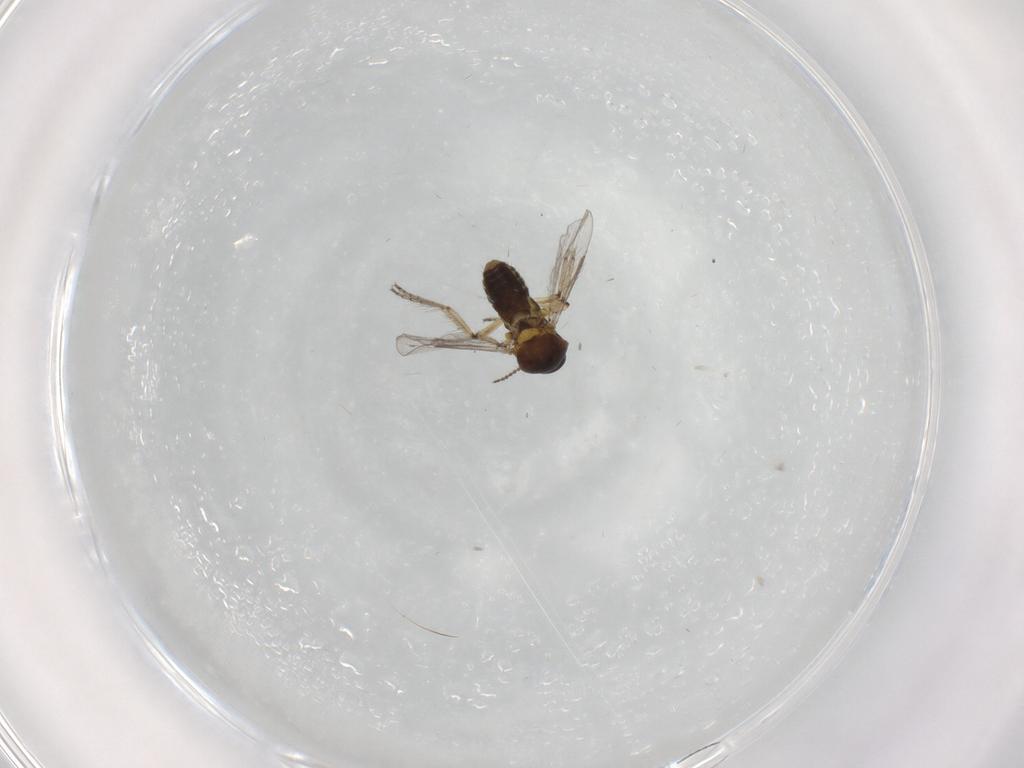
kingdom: Animalia
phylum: Arthropoda
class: Insecta
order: Diptera
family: Ceratopogonidae
